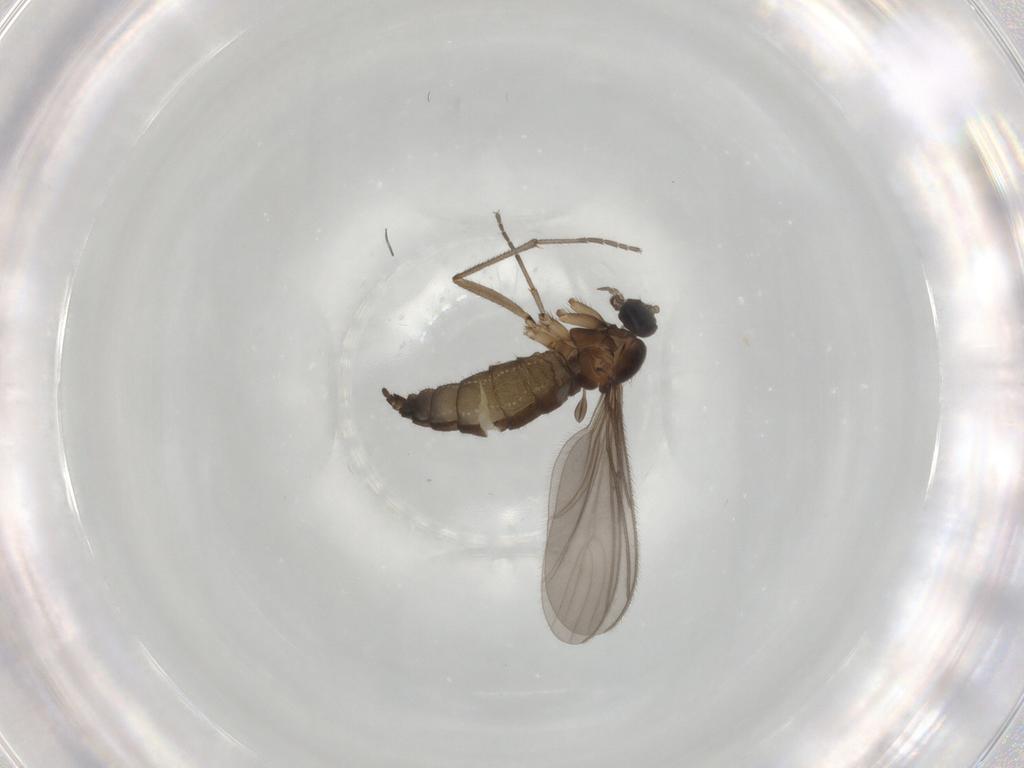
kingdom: Animalia
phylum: Arthropoda
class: Insecta
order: Diptera
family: Sciaridae
